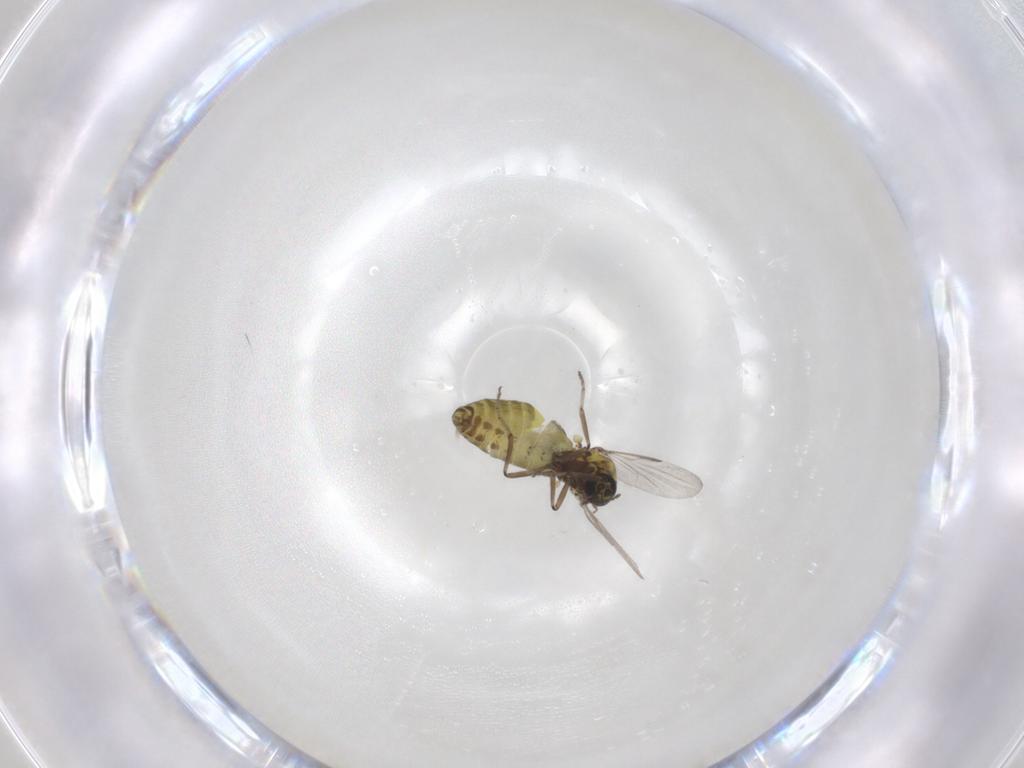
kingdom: Animalia
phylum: Arthropoda
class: Insecta
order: Diptera
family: Ceratopogonidae
